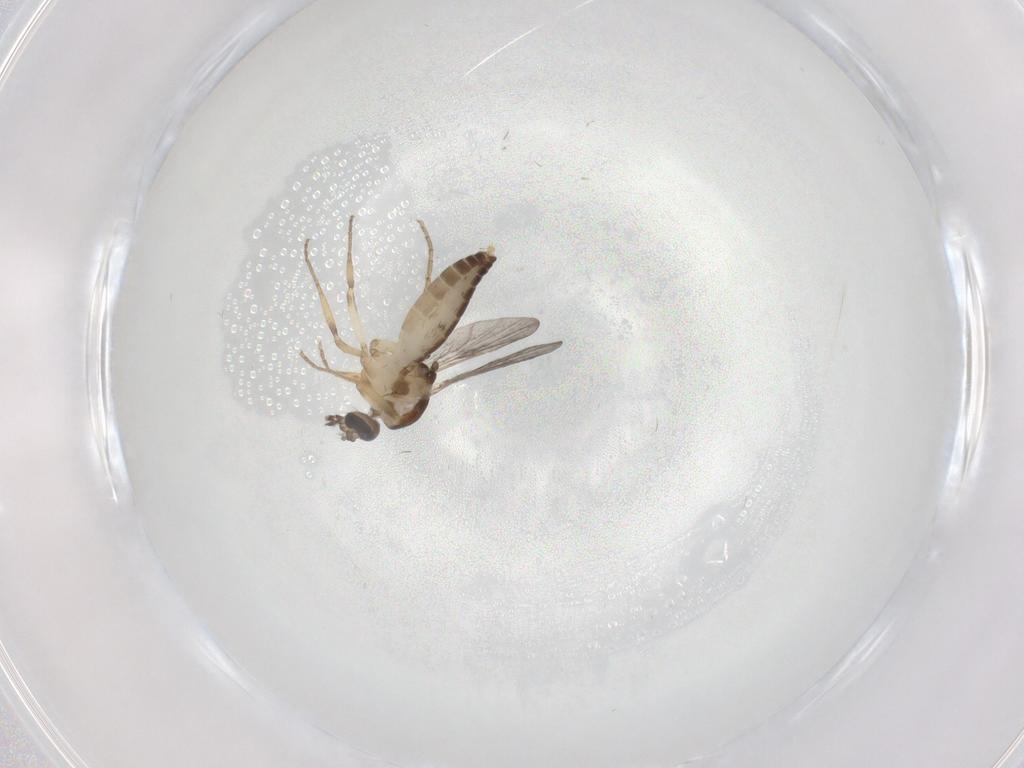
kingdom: Animalia
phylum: Arthropoda
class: Insecta
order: Diptera
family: Ceratopogonidae
